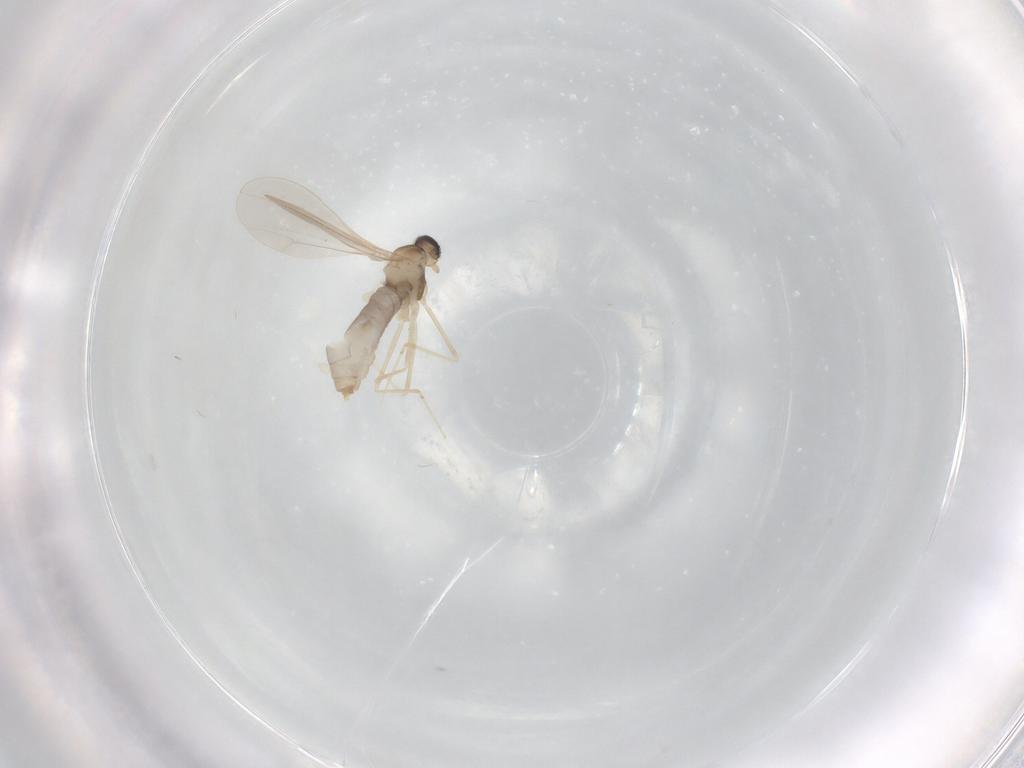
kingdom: Animalia
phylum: Arthropoda
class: Insecta
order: Diptera
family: Cecidomyiidae
